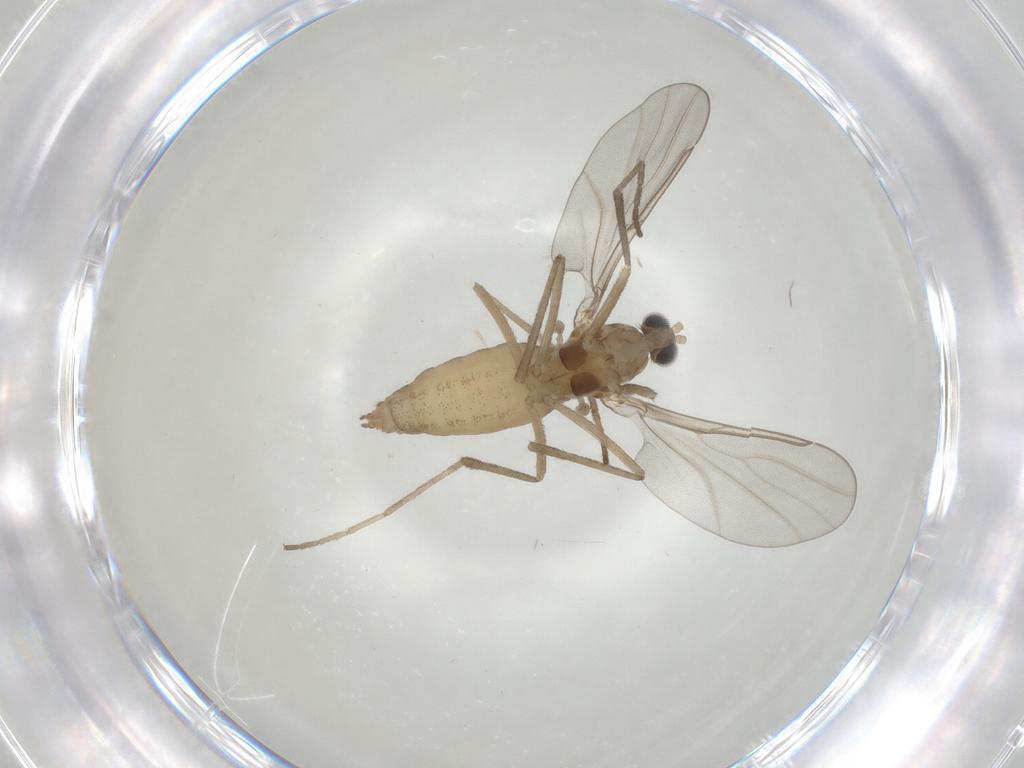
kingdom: Animalia
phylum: Arthropoda
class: Insecta
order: Diptera
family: Cecidomyiidae
